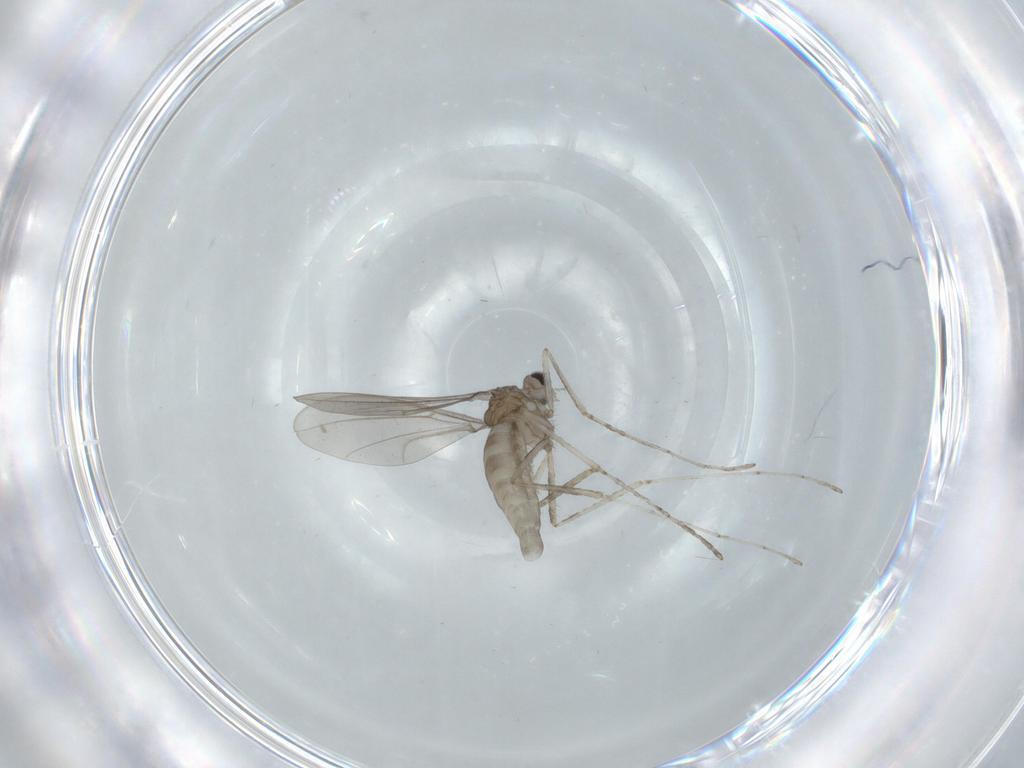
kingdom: Animalia
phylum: Arthropoda
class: Insecta
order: Diptera
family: Cecidomyiidae
